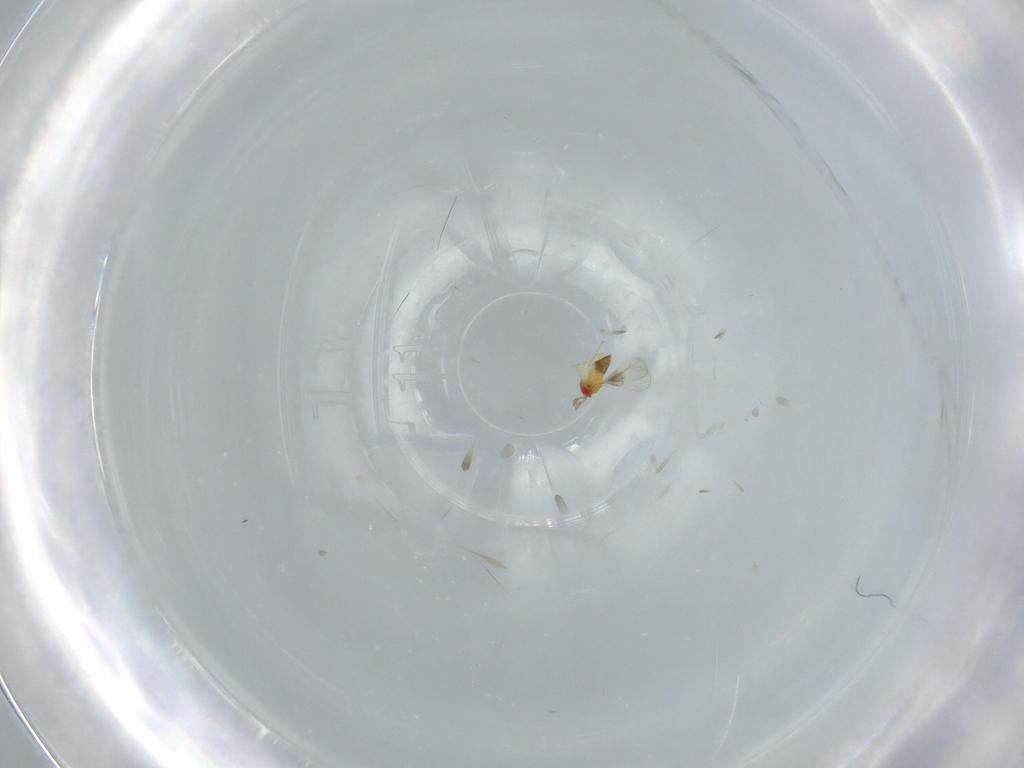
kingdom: Animalia
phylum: Arthropoda
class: Insecta
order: Hymenoptera
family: Trichogrammatidae
